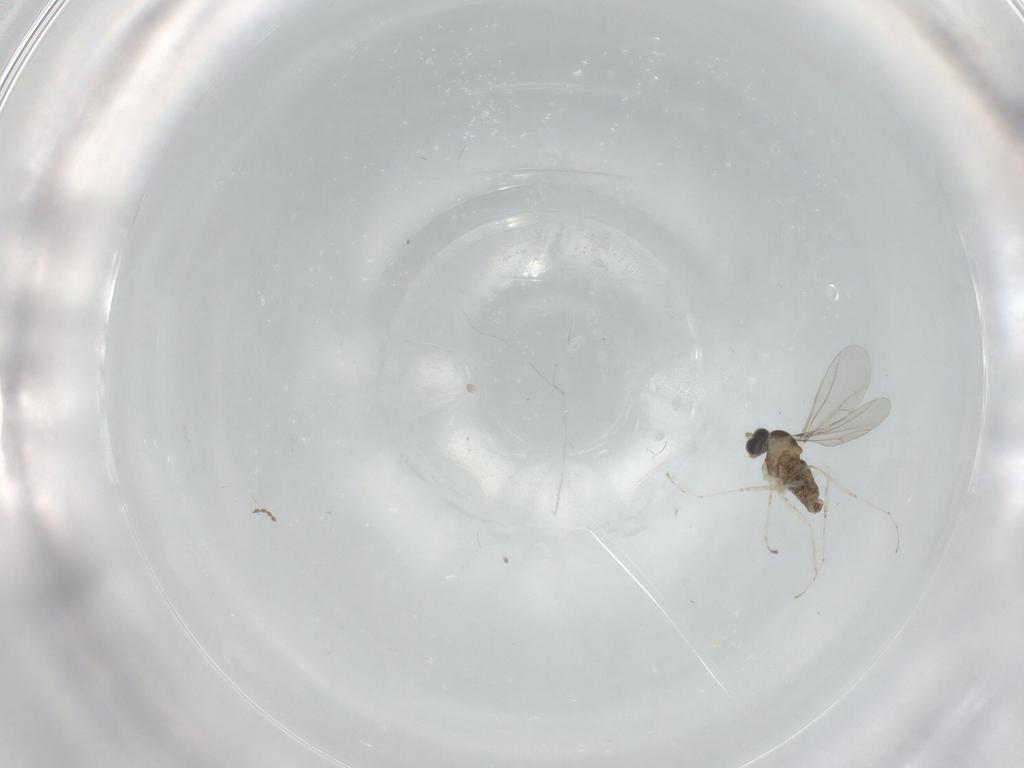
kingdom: Animalia
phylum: Arthropoda
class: Insecta
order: Diptera
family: Cecidomyiidae
